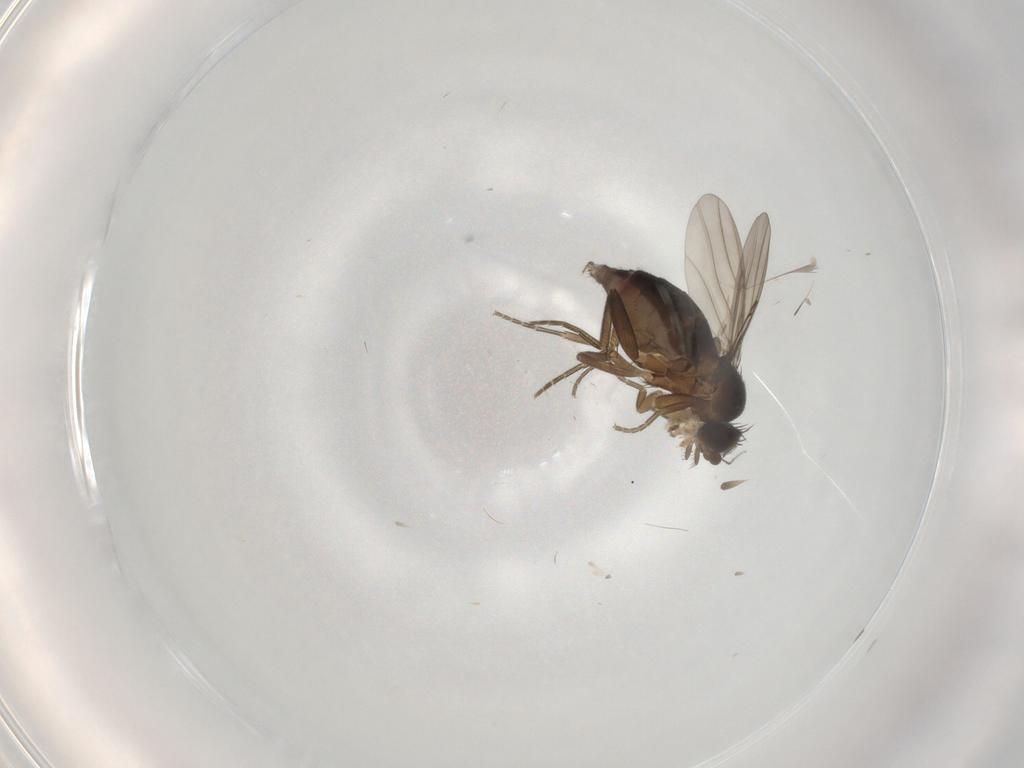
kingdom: Animalia
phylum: Arthropoda
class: Insecta
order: Diptera
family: Phoridae
